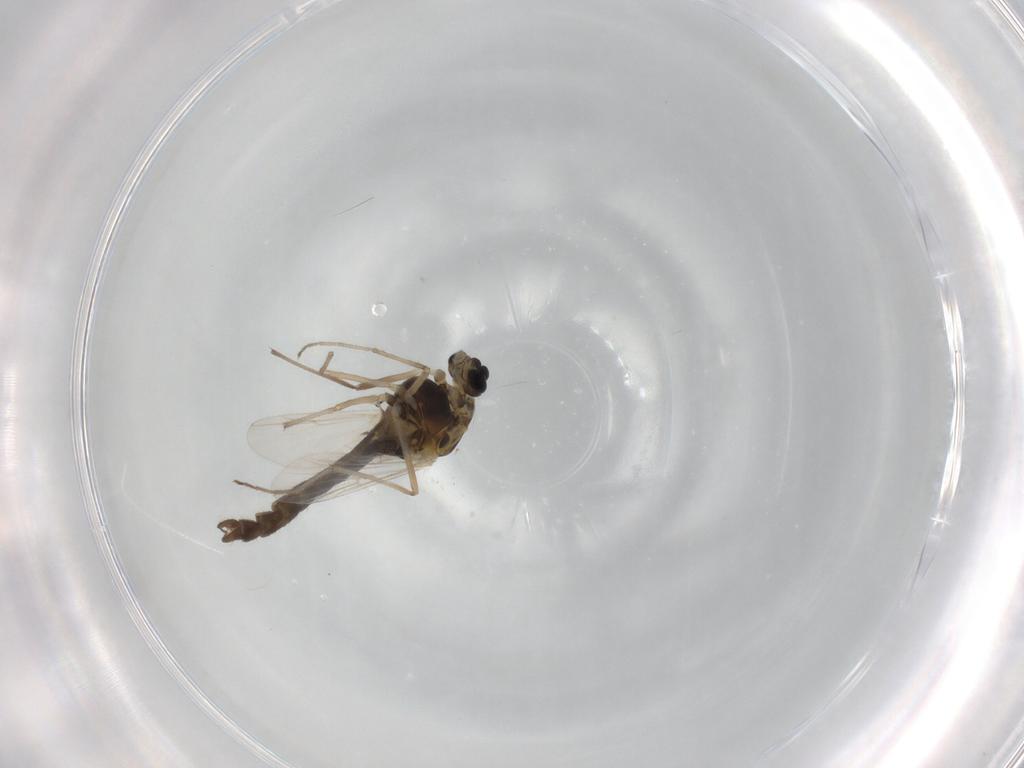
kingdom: Animalia
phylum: Arthropoda
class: Insecta
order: Diptera
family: Chironomidae
